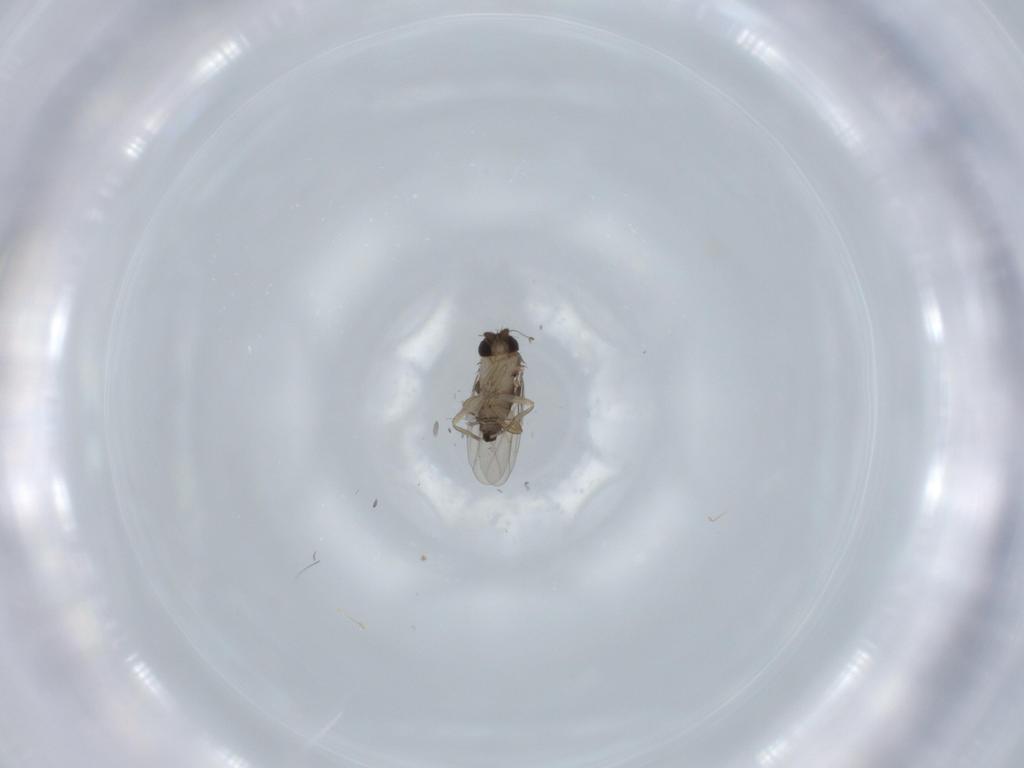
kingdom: Animalia
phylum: Arthropoda
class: Insecta
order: Diptera
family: Phoridae
